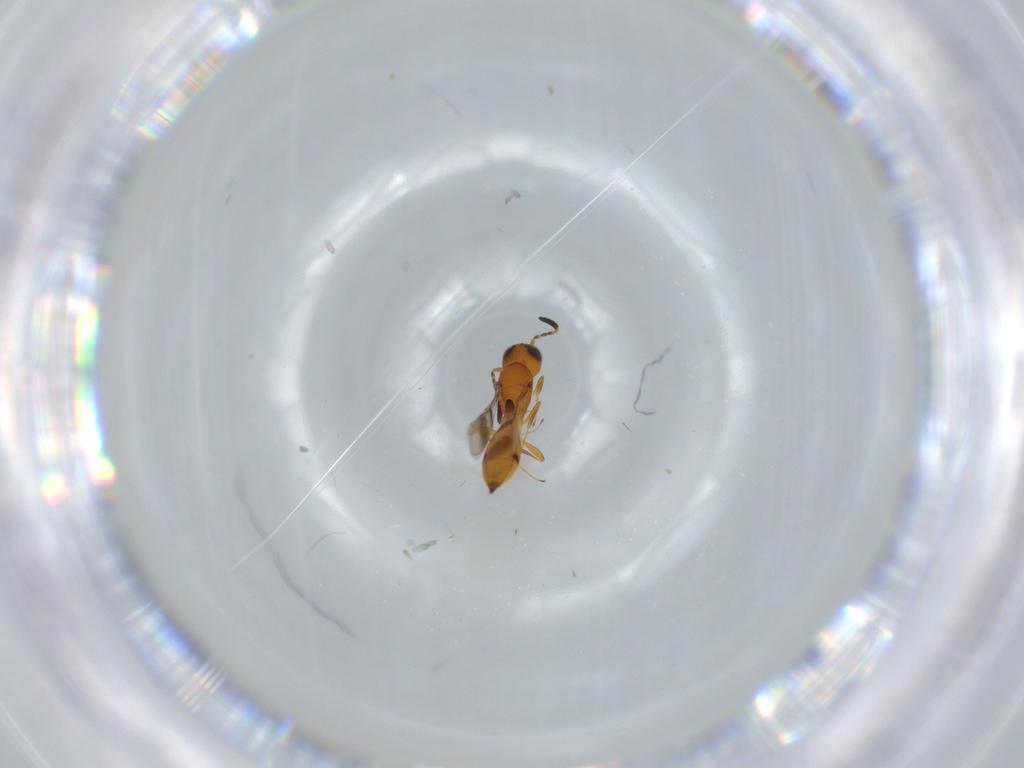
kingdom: Animalia
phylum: Arthropoda
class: Insecta
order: Hymenoptera
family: Scelionidae
